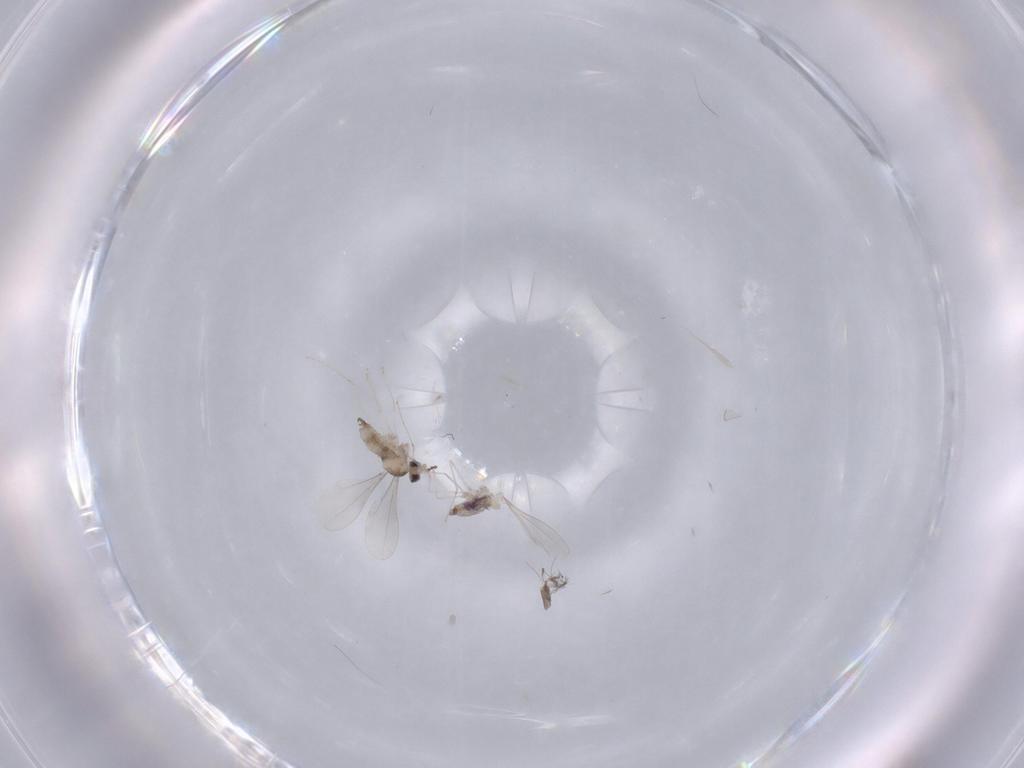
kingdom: Animalia
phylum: Arthropoda
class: Insecta
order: Diptera
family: Cecidomyiidae
